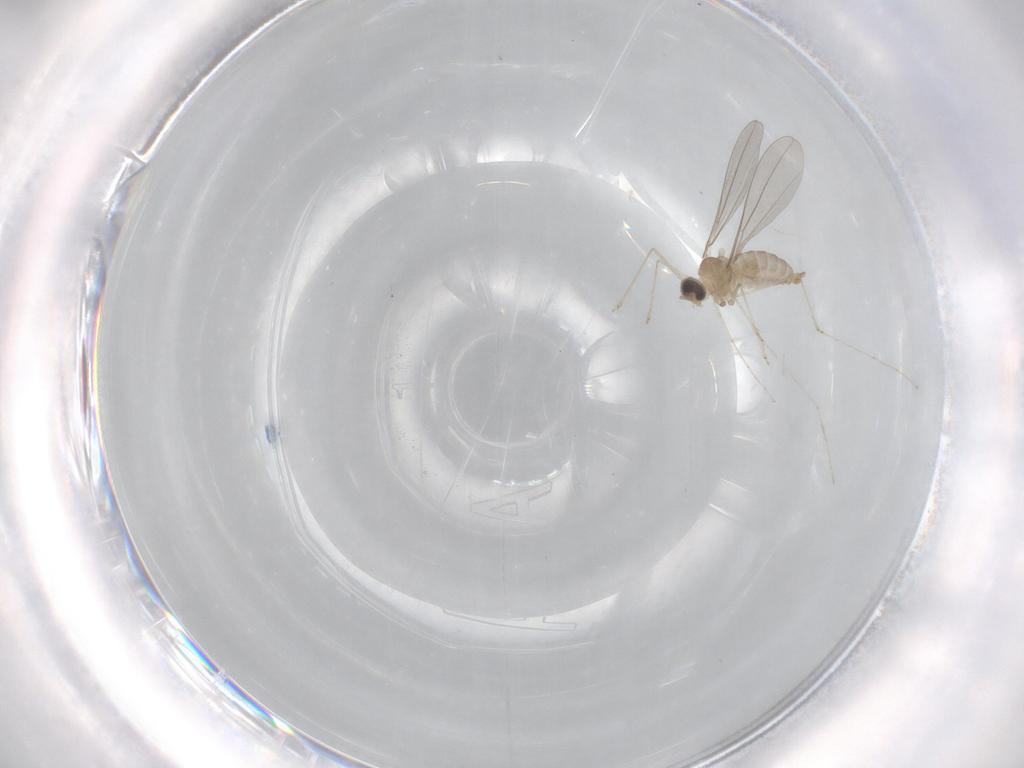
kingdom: Animalia
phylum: Arthropoda
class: Insecta
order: Diptera
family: Cecidomyiidae
